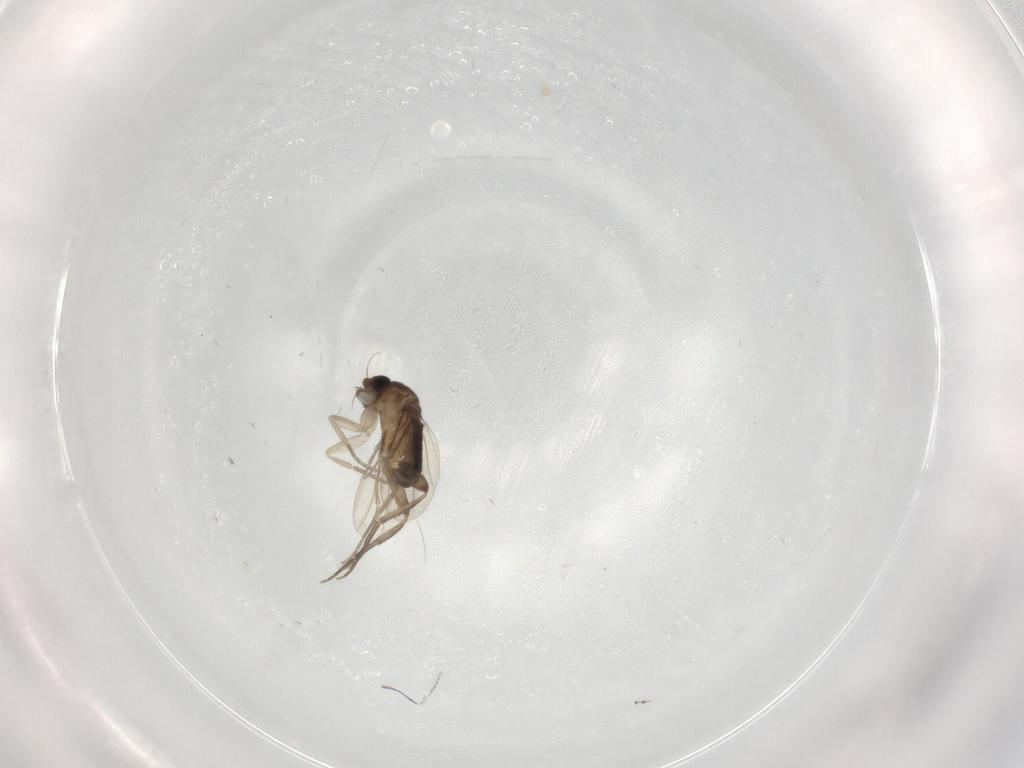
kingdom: Animalia
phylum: Arthropoda
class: Insecta
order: Diptera
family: Phoridae
